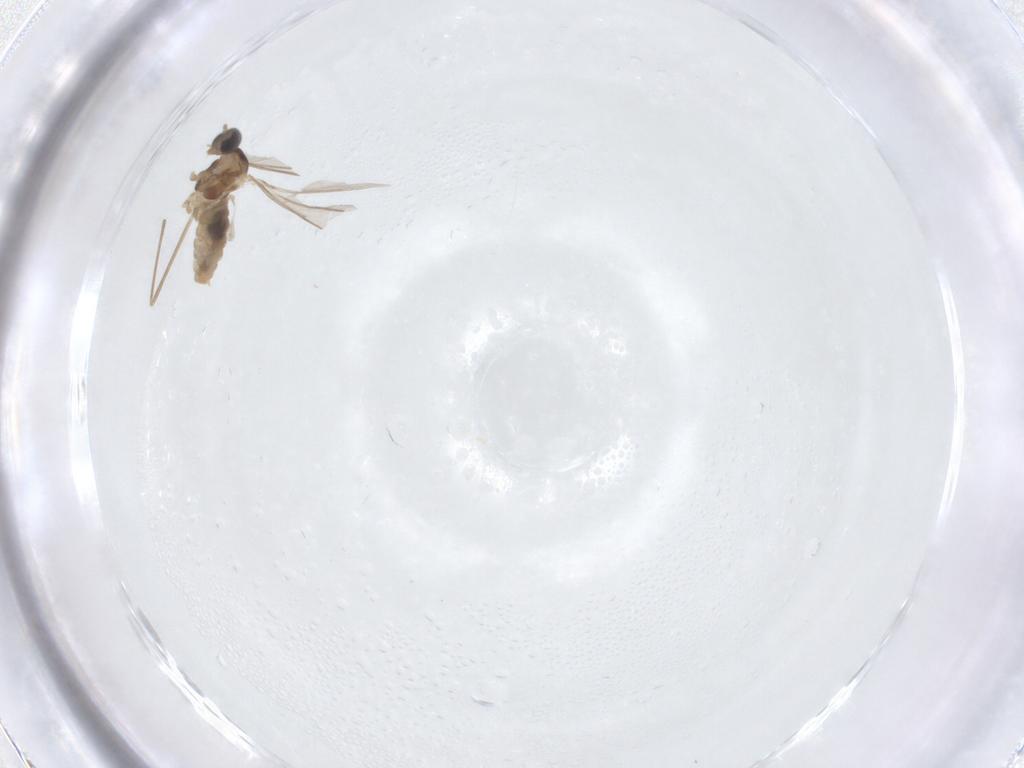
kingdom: Animalia
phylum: Arthropoda
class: Insecta
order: Diptera
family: Cecidomyiidae
